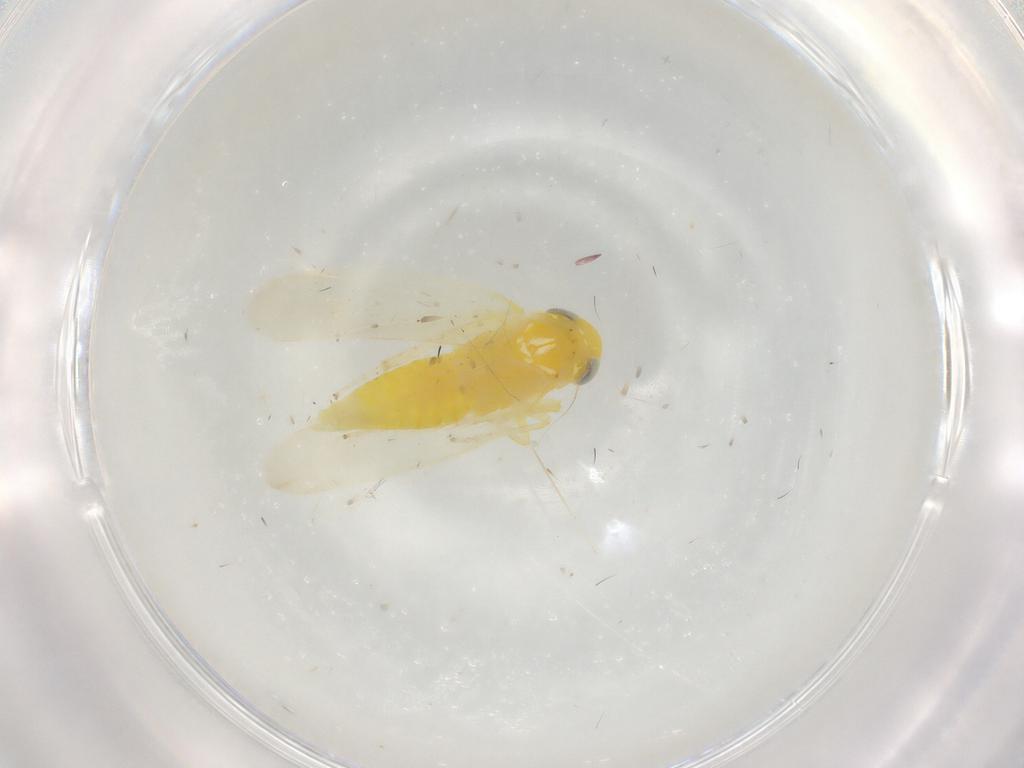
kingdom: Animalia
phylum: Arthropoda
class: Insecta
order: Hemiptera
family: Cicadellidae
